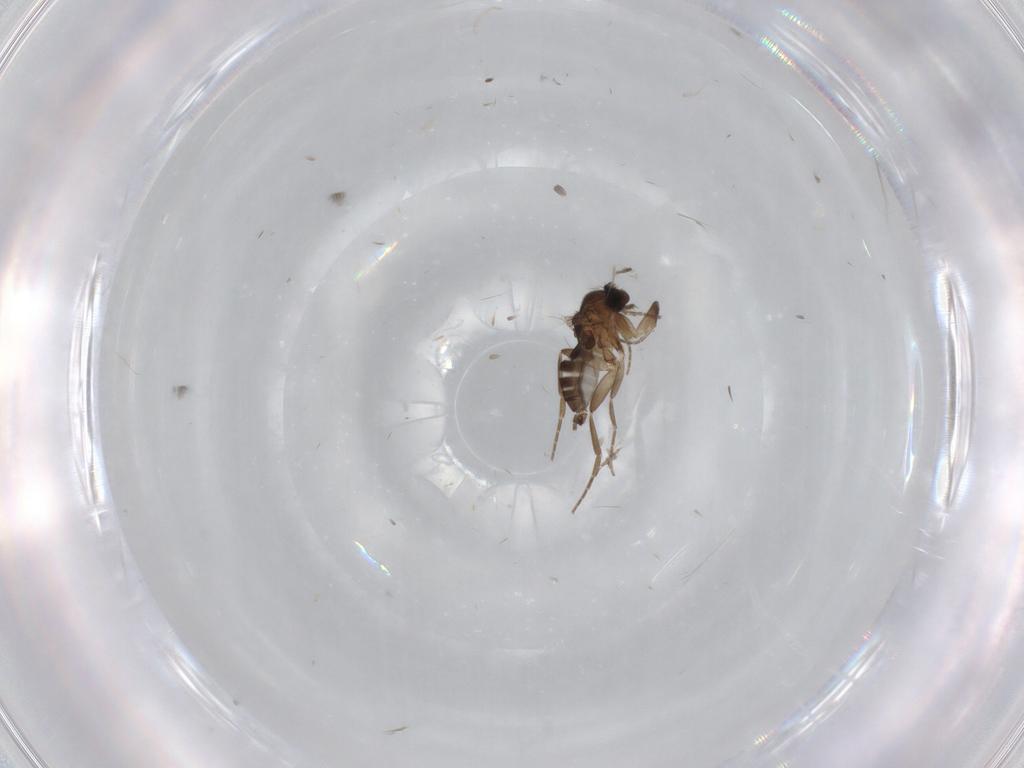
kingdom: Animalia
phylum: Arthropoda
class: Insecta
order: Diptera
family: Phoridae
